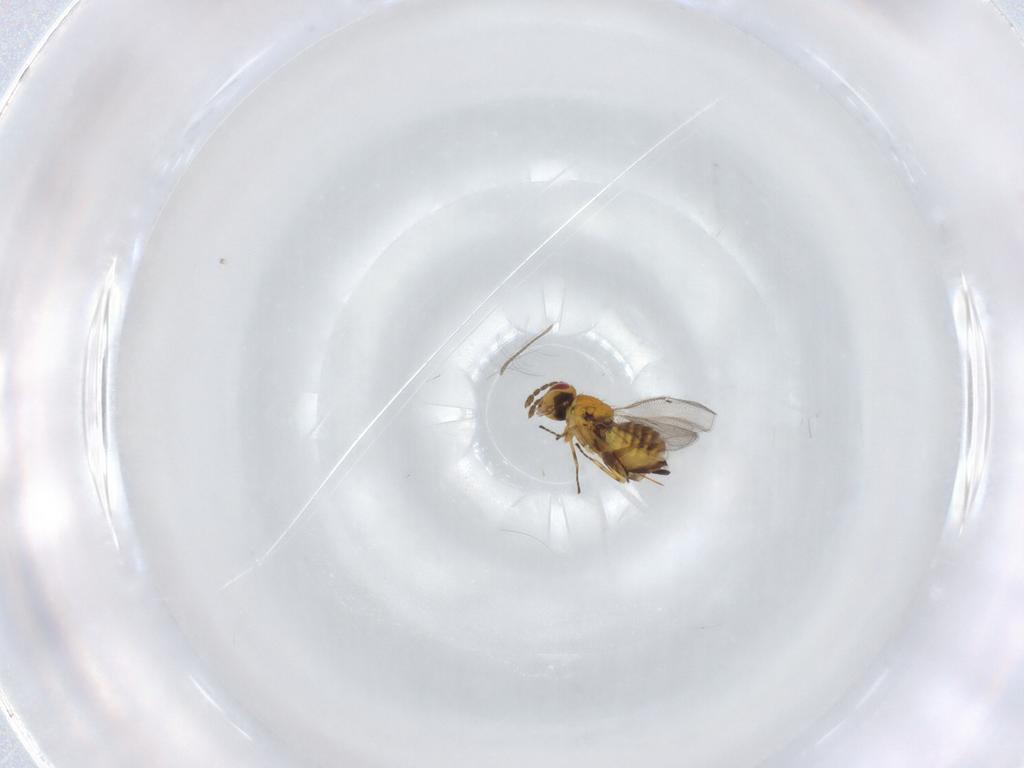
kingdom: Animalia
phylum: Arthropoda
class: Insecta
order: Hymenoptera
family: Eulophidae
